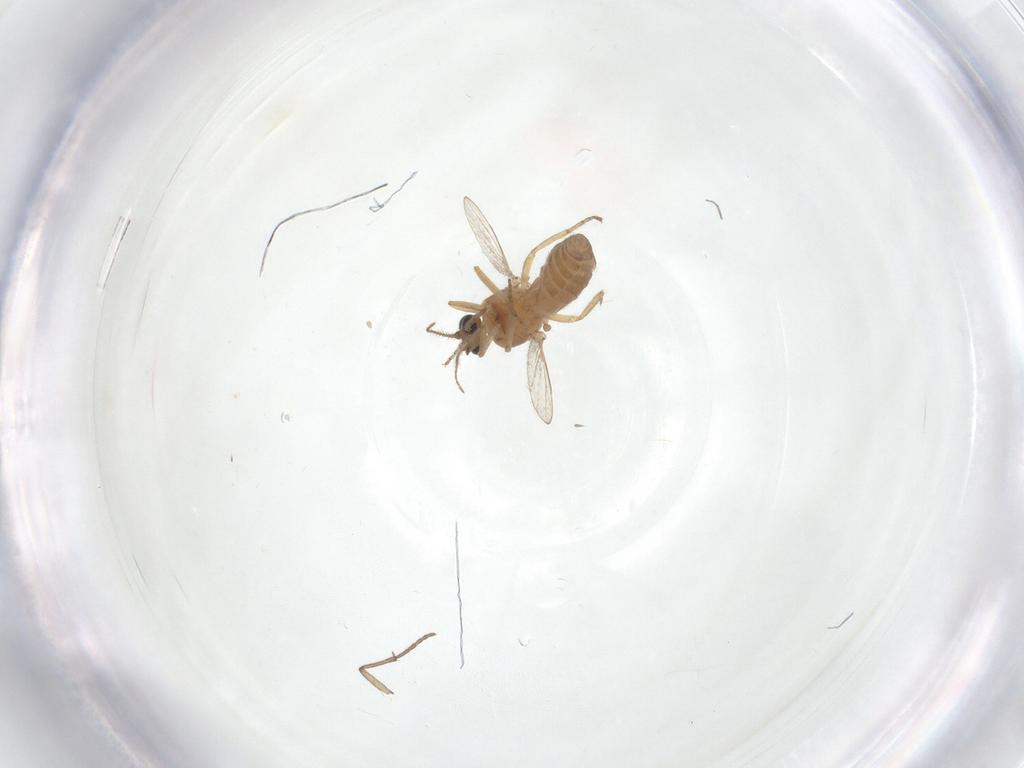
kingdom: Animalia
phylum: Arthropoda
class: Insecta
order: Diptera
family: Ceratopogonidae
